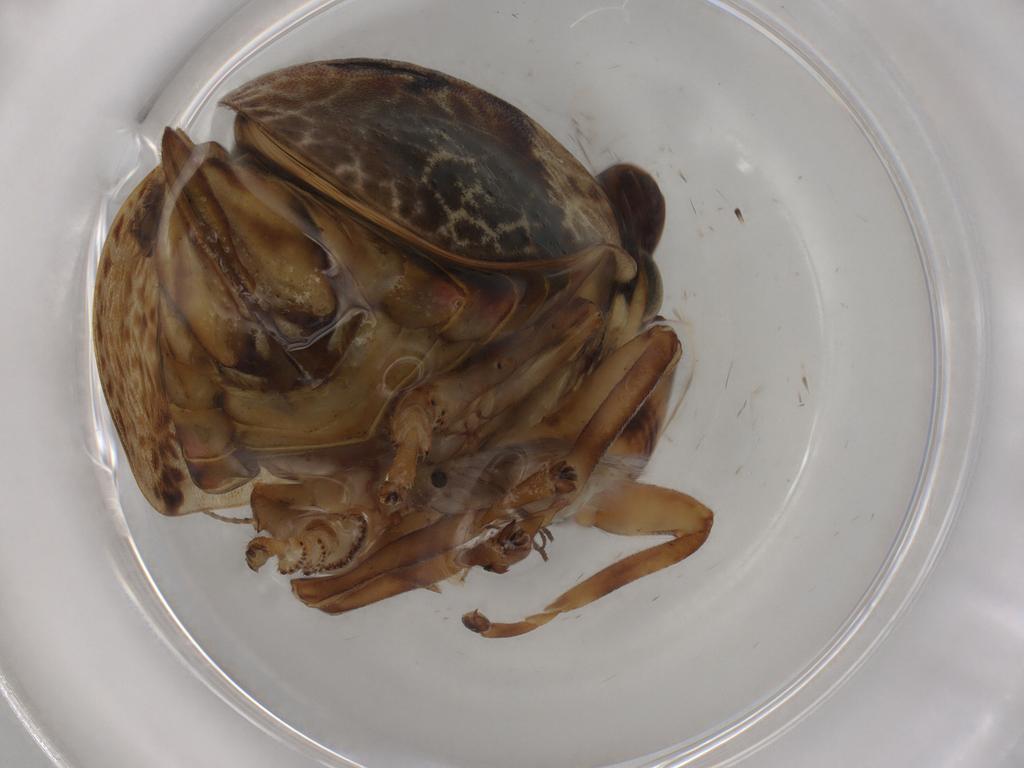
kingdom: Animalia
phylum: Arthropoda
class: Insecta
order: Hemiptera
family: Aphrophoridae
